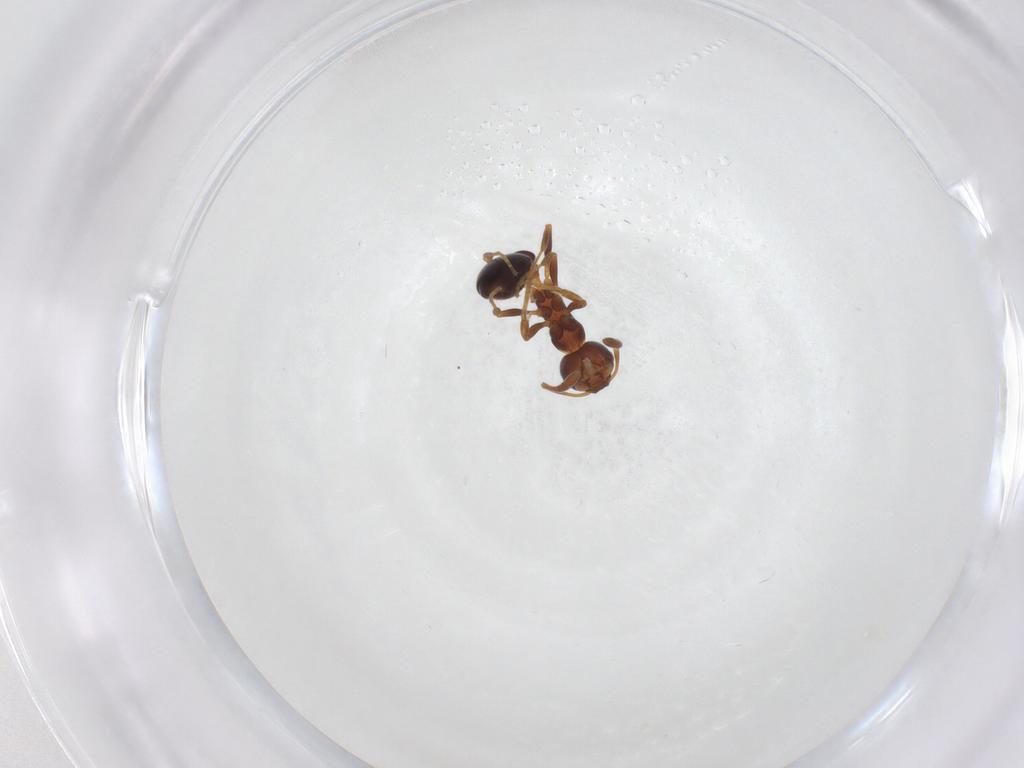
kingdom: Animalia
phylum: Arthropoda
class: Insecta
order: Hymenoptera
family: Formicidae
